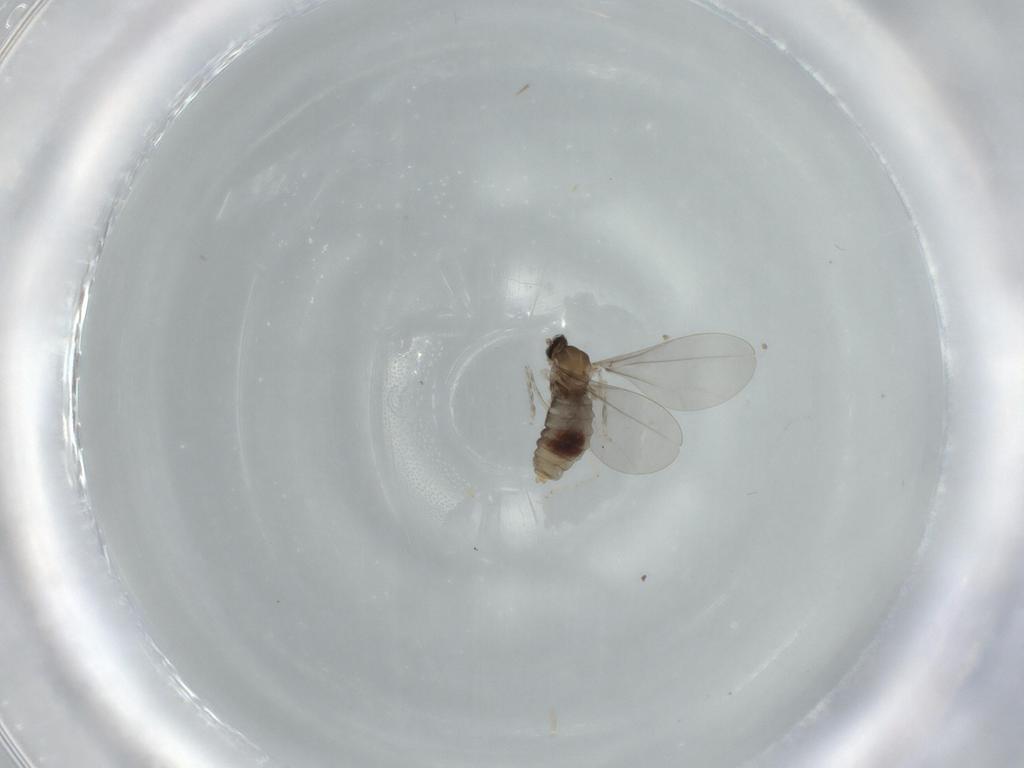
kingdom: Animalia
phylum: Arthropoda
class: Insecta
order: Diptera
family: Cecidomyiidae
